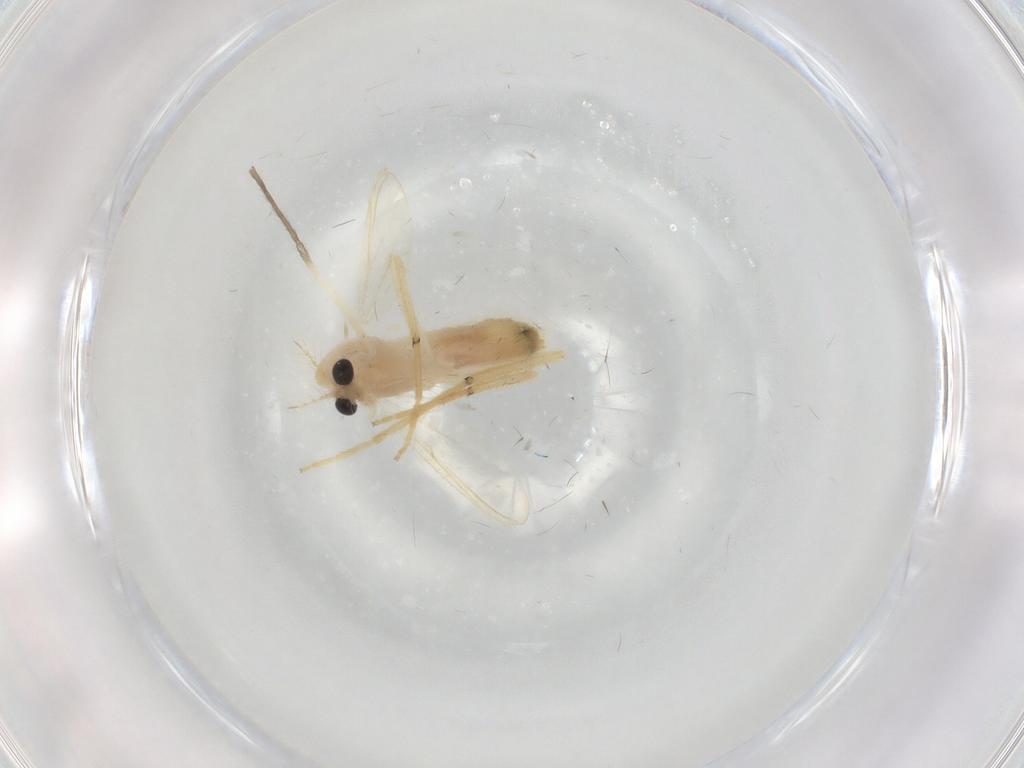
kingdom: Animalia
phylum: Arthropoda
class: Insecta
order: Diptera
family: Chironomidae
